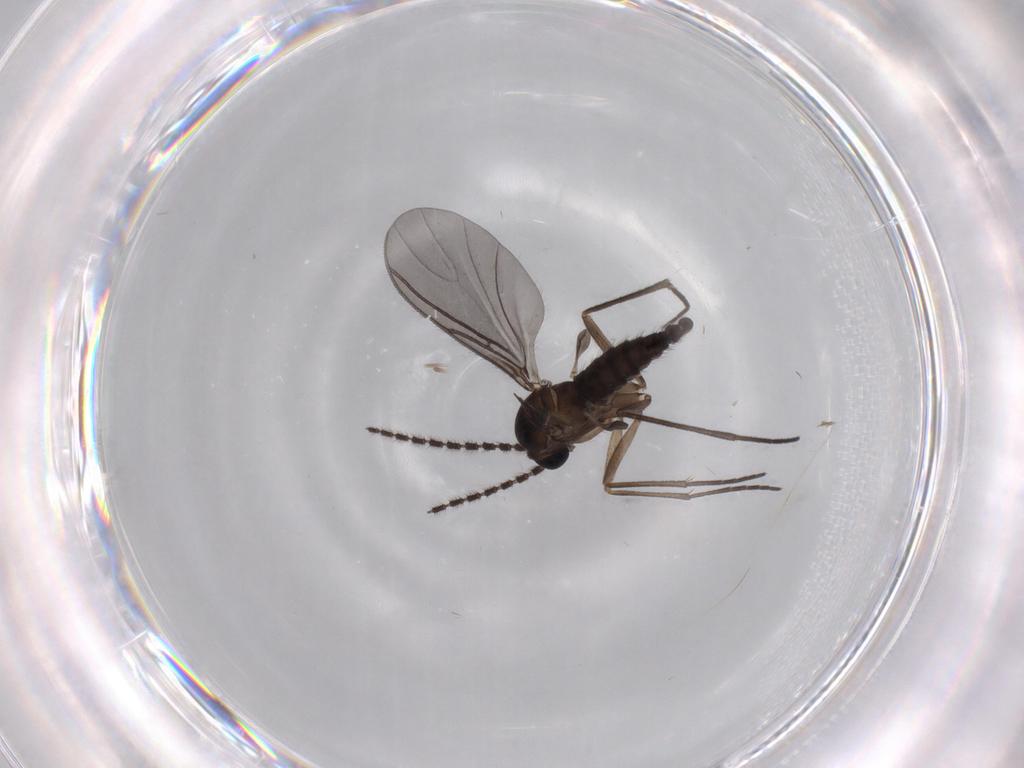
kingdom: Animalia
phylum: Arthropoda
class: Insecta
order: Diptera
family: Sciaridae
